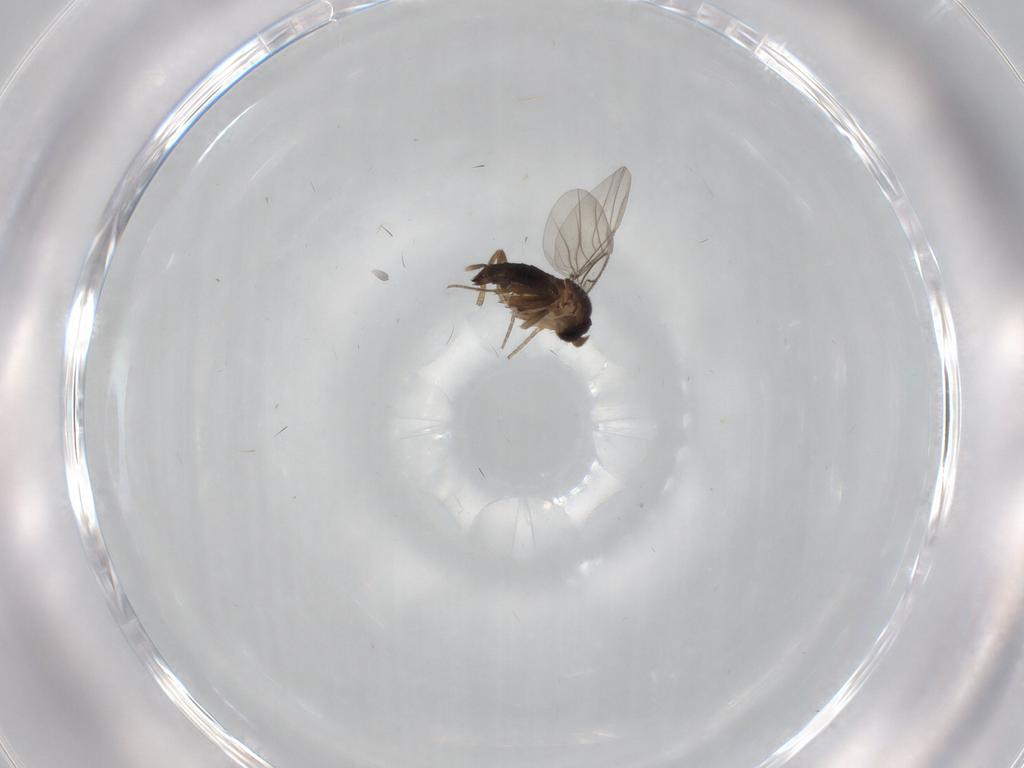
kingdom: Animalia
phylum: Arthropoda
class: Insecta
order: Diptera
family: Phoridae
